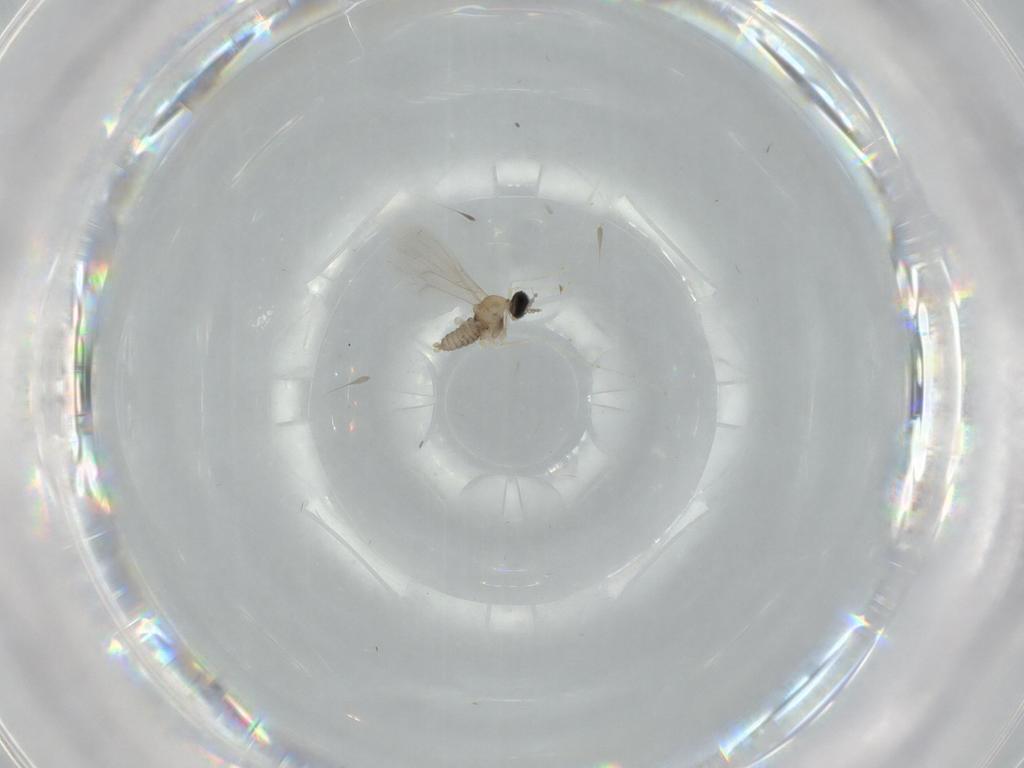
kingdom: Animalia
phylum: Arthropoda
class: Insecta
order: Diptera
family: Cecidomyiidae
